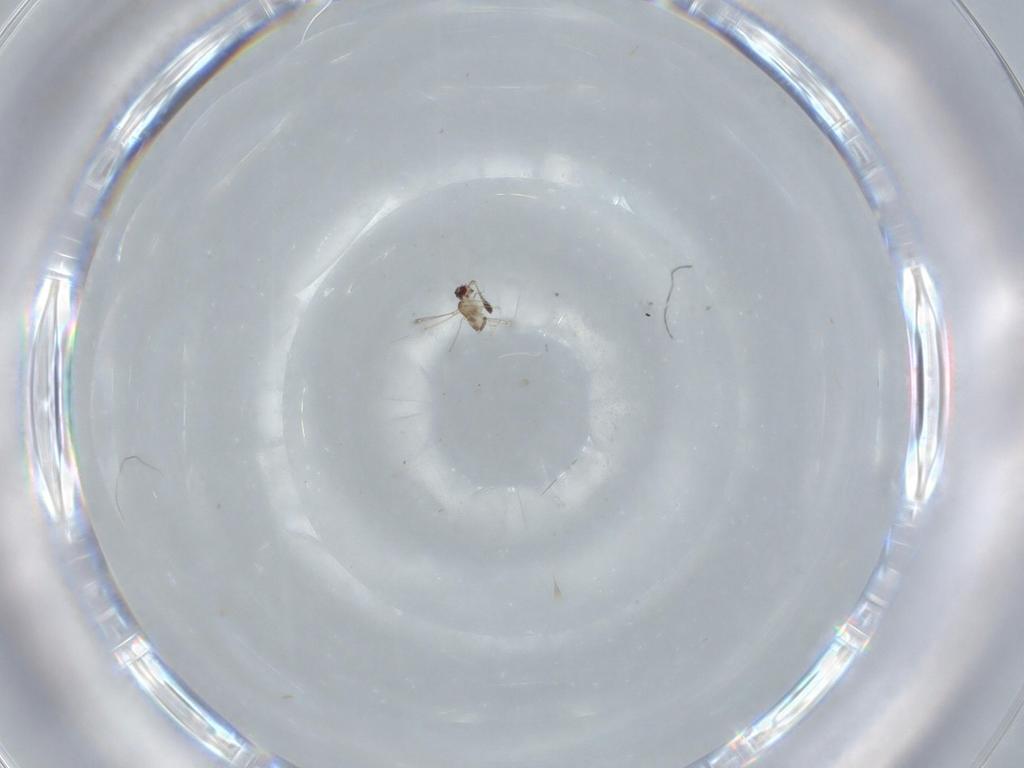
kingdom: Animalia
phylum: Arthropoda
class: Insecta
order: Diptera
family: Cecidomyiidae
